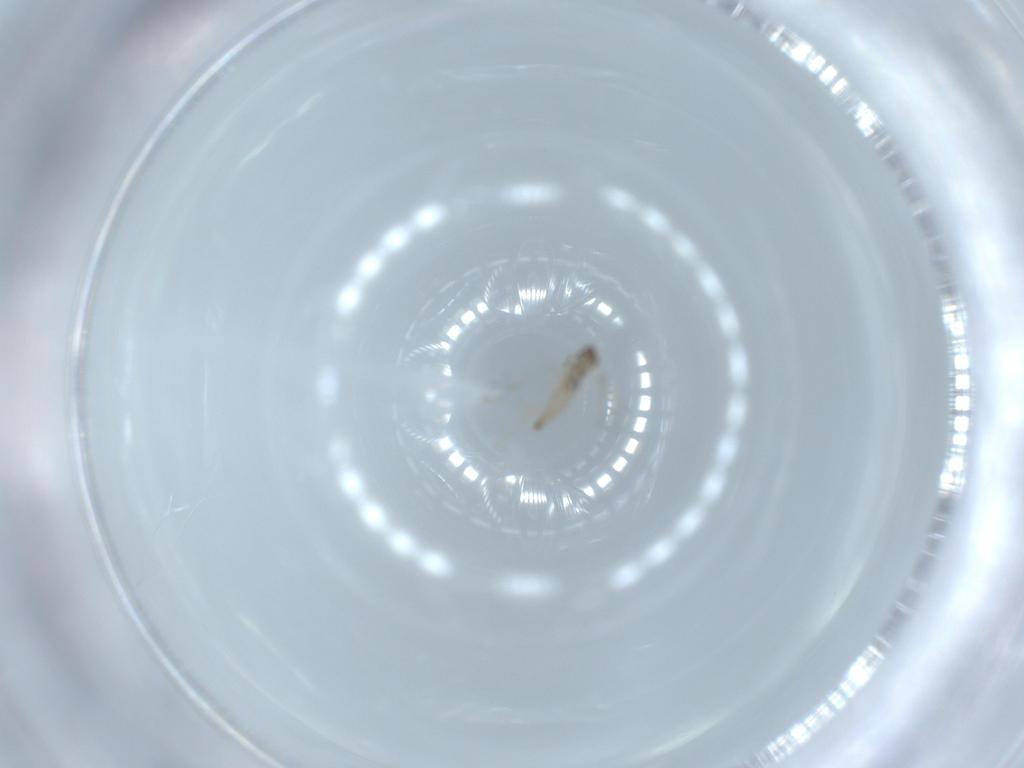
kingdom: Animalia
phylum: Arthropoda
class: Insecta
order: Diptera
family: Cecidomyiidae
